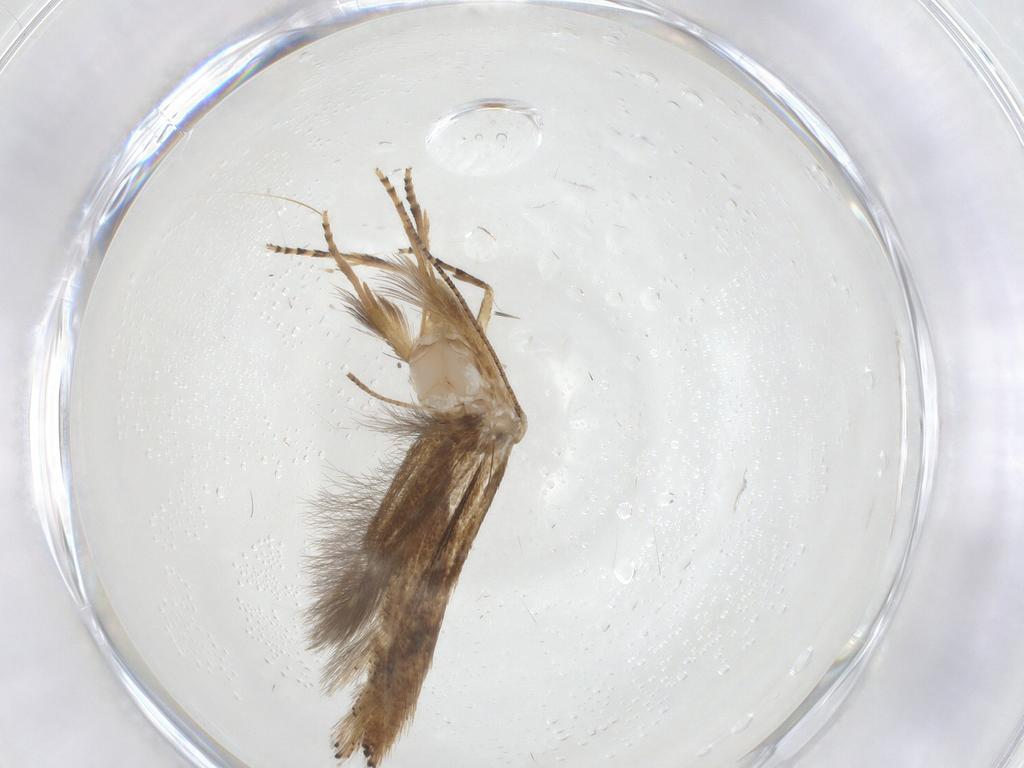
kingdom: Animalia
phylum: Arthropoda
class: Insecta
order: Lepidoptera
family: Bucculatricidae
